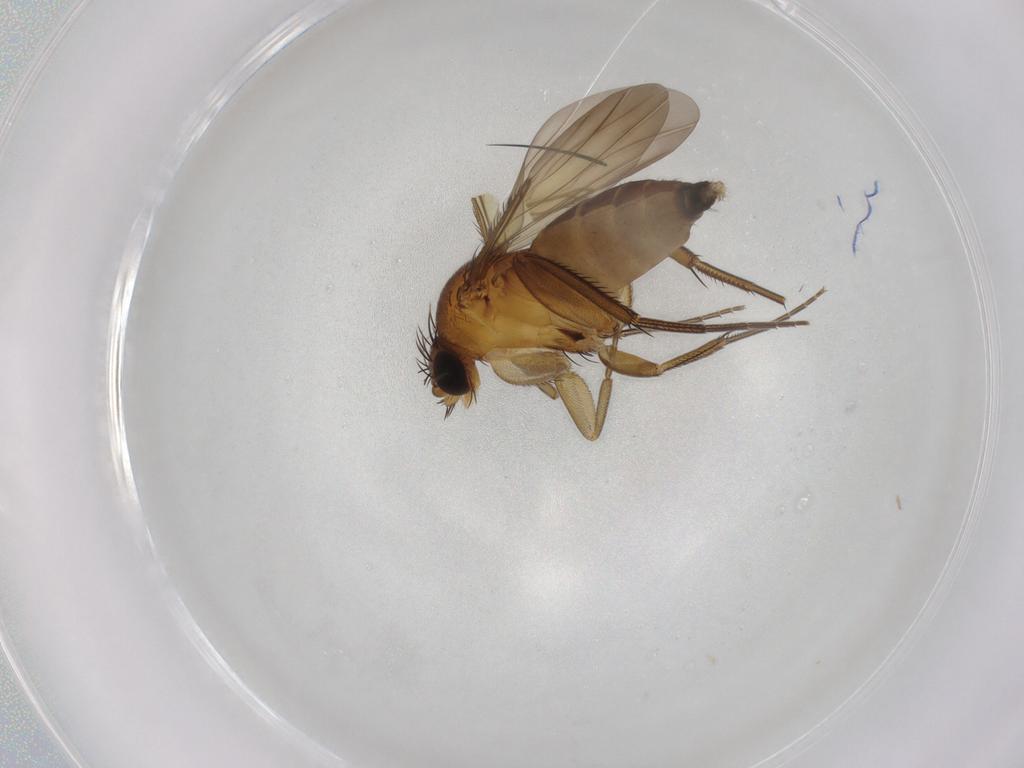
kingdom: Animalia
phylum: Arthropoda
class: Insecta
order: Diptera
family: Phoridae
